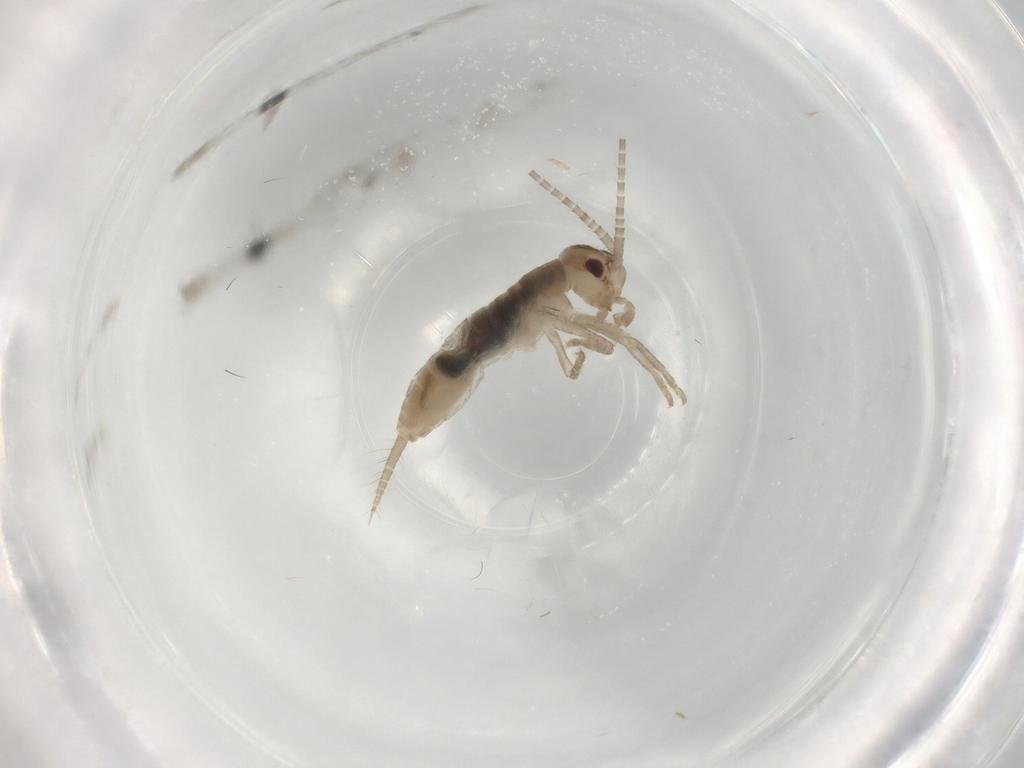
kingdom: Animalia
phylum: Arthropoda
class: Insecta
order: Orthoptera
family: Mogoplistidae
